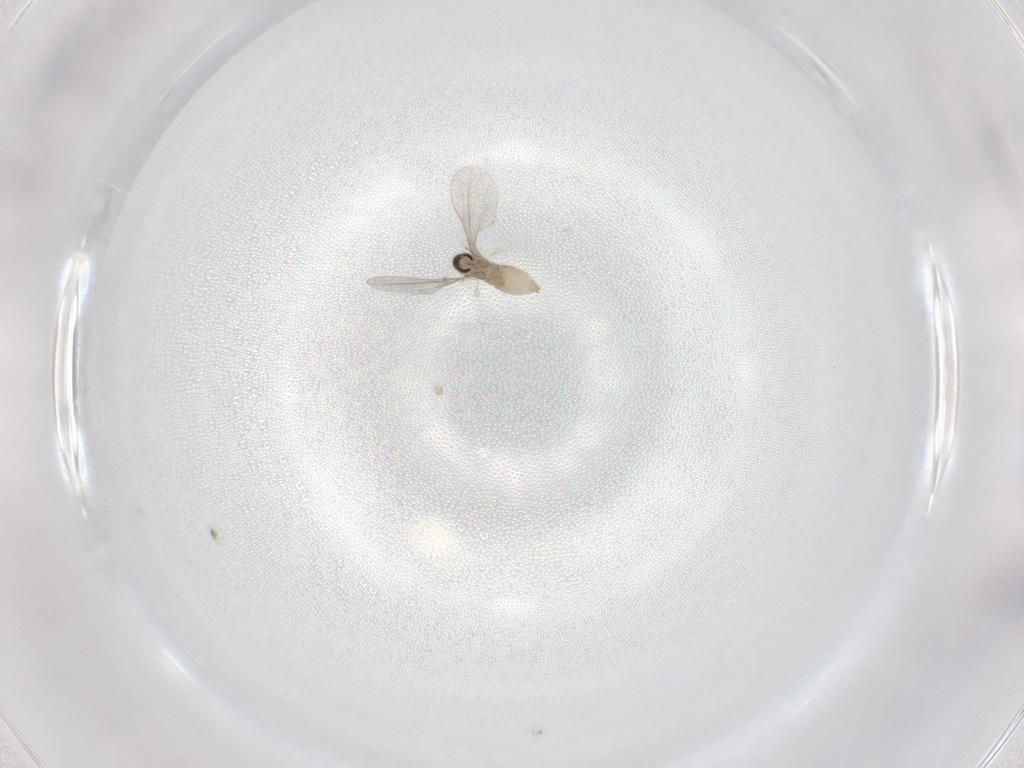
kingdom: Animalia
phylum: Arthropoda
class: Insecta
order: Diptera
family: Cecidomyiidae
